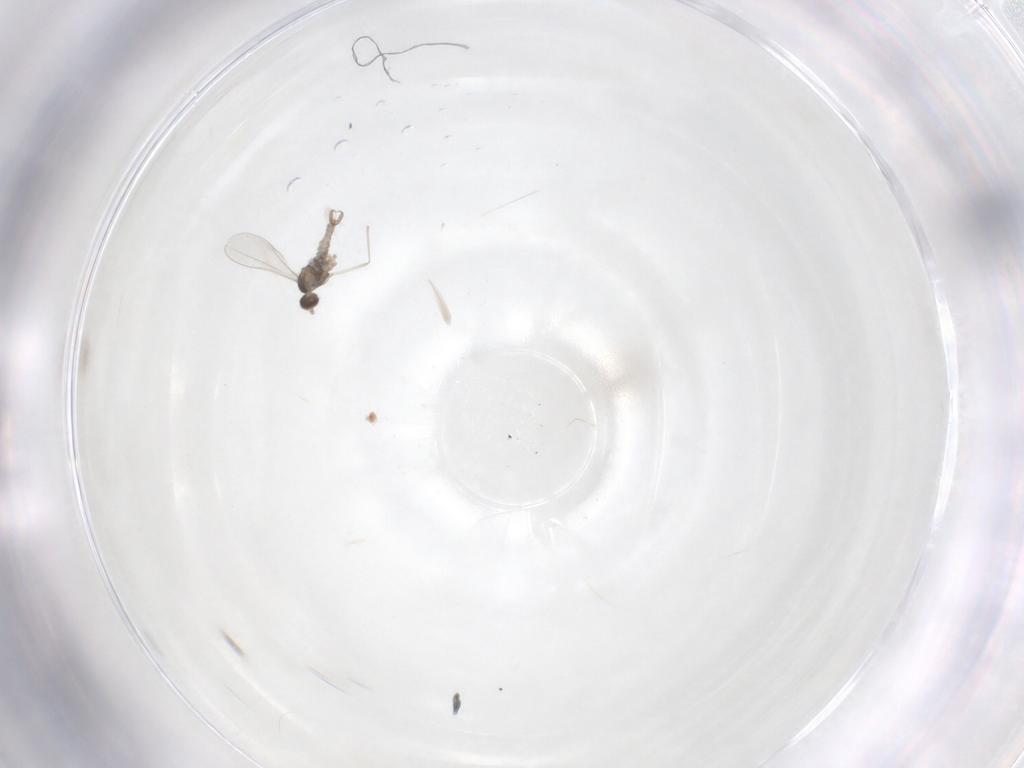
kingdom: Animalia
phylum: Arthropoda
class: Insecta
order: Diptera
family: Cecidomyiidae
